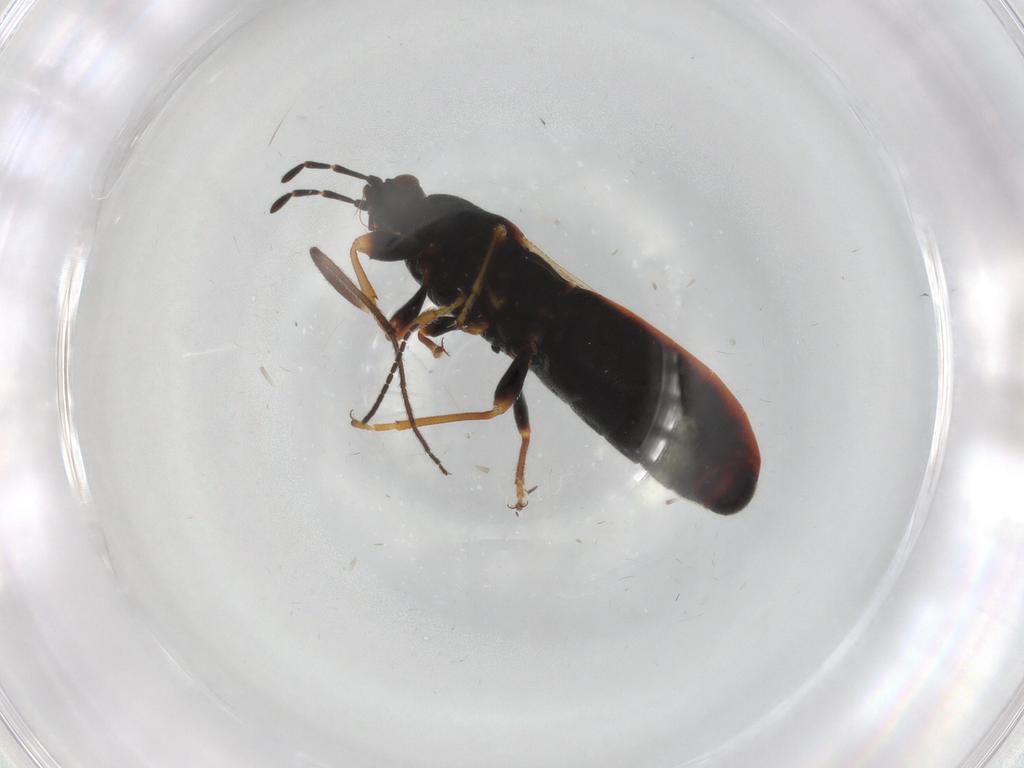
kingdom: Animalia
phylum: Arthropoda
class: Insecta
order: Hemiptera
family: Blissidae
